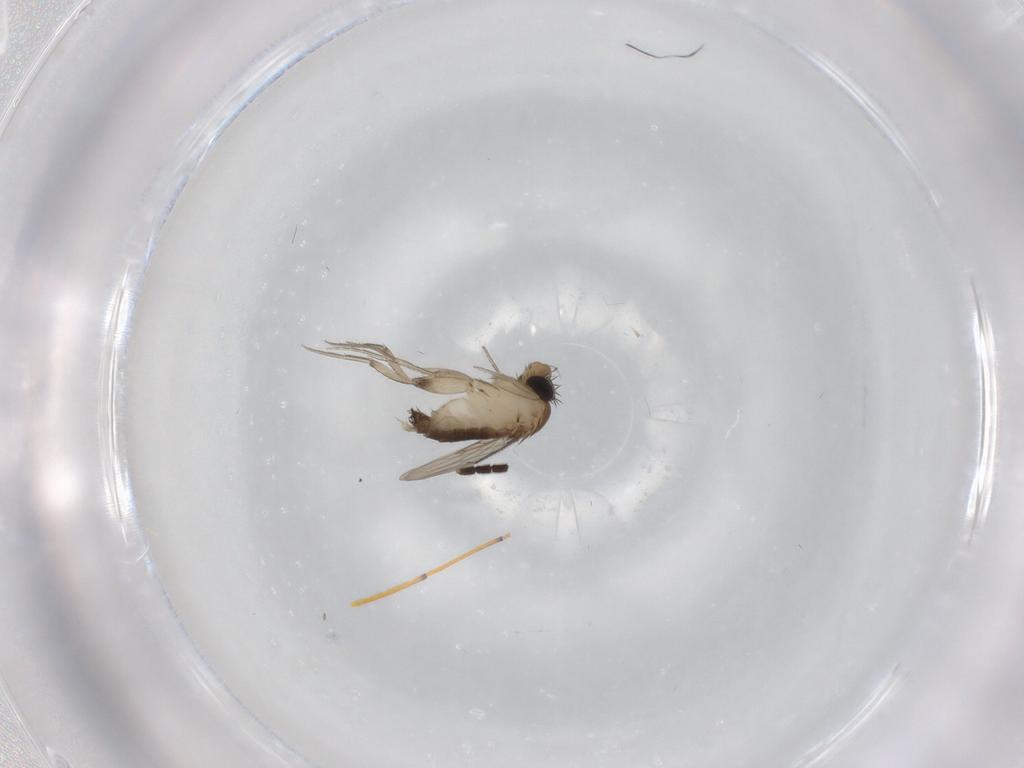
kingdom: Animalia
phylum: Arthropoda
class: Insecta
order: Diptera
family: Phoridae
